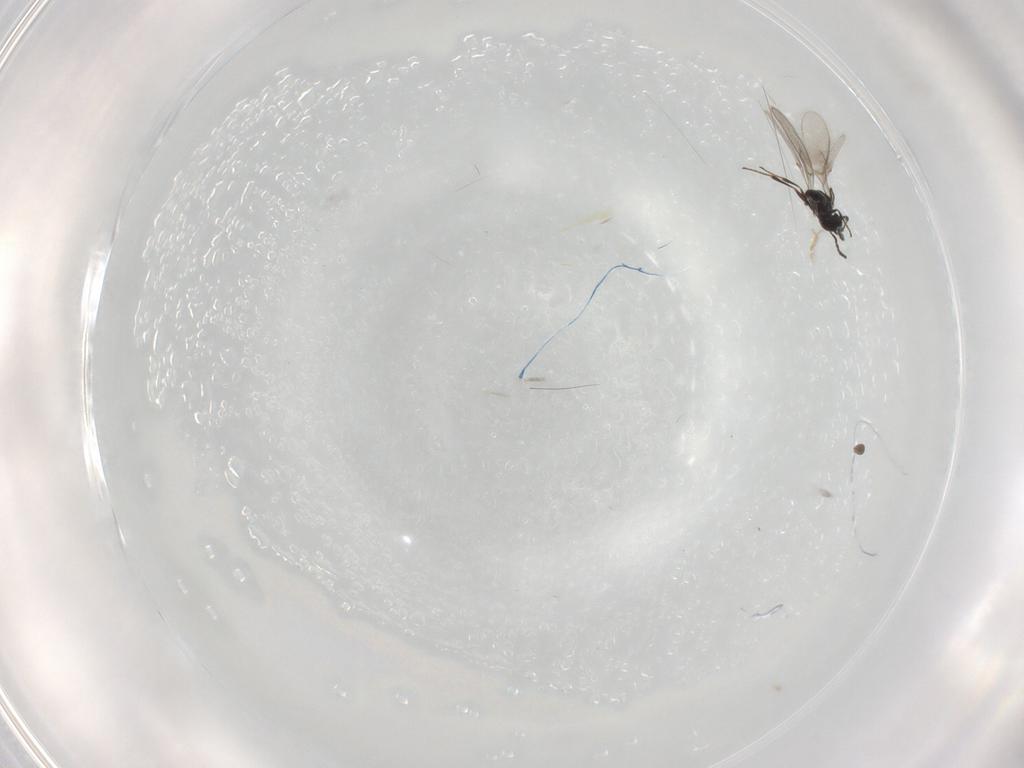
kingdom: Animalia
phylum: Arthropoda
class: Insecta
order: Hymenoptera
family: Scelionidae
